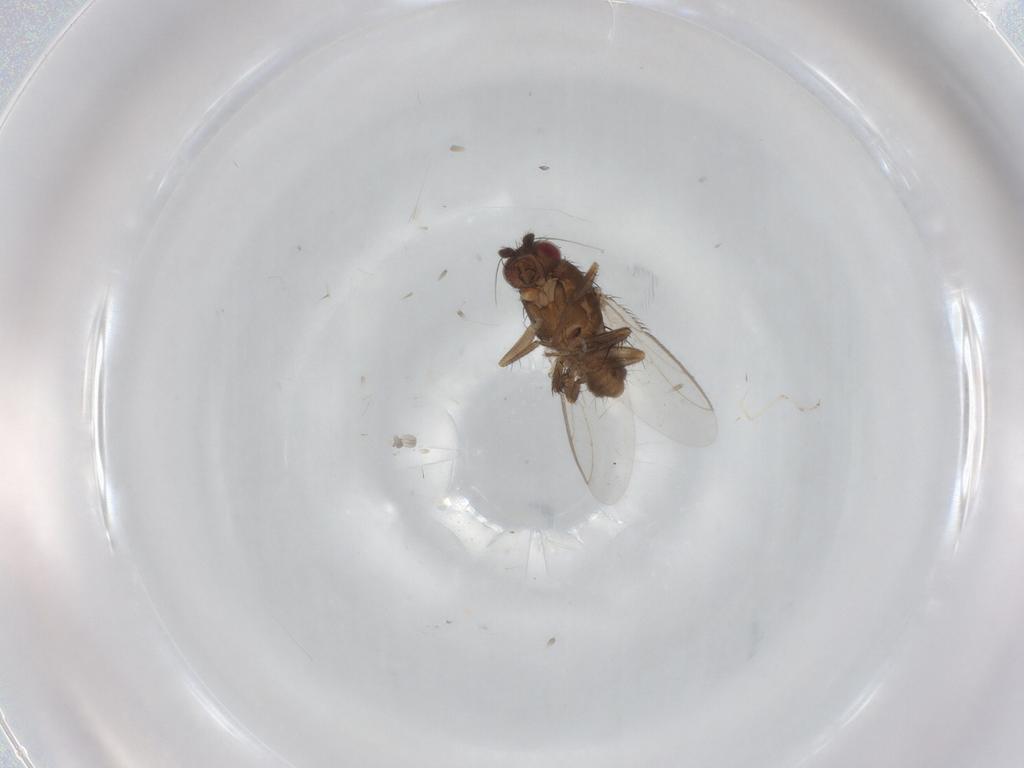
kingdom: Animalia
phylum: Arthropoda
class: Insecta
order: Diptera
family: Sphaeroceridae
